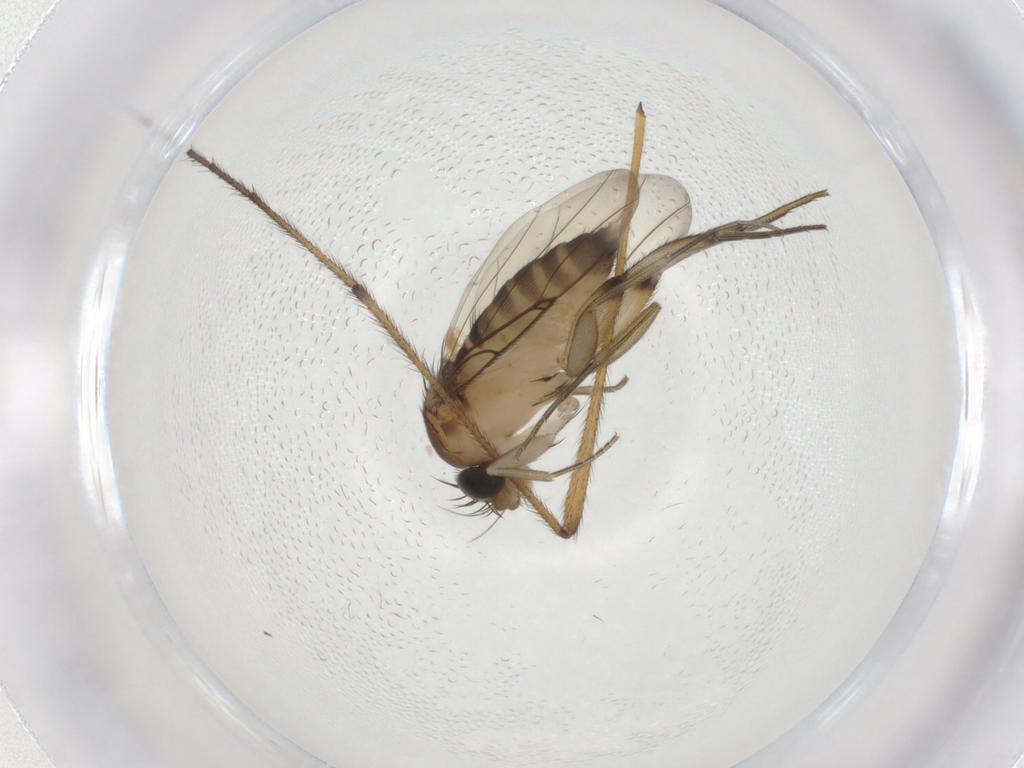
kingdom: Animalia
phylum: Arthropoda
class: Insecta
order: Diptera
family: Phoridae
